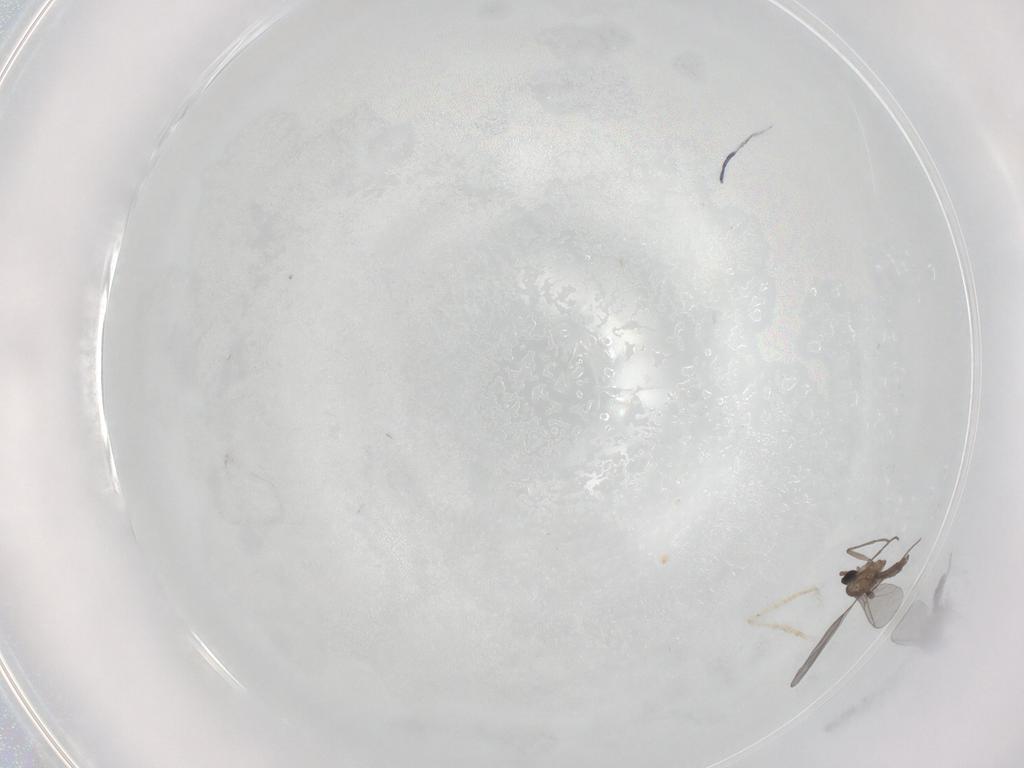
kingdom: Animalia
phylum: Arthropoda
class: Insecta
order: Diptera
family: Sciaridae
